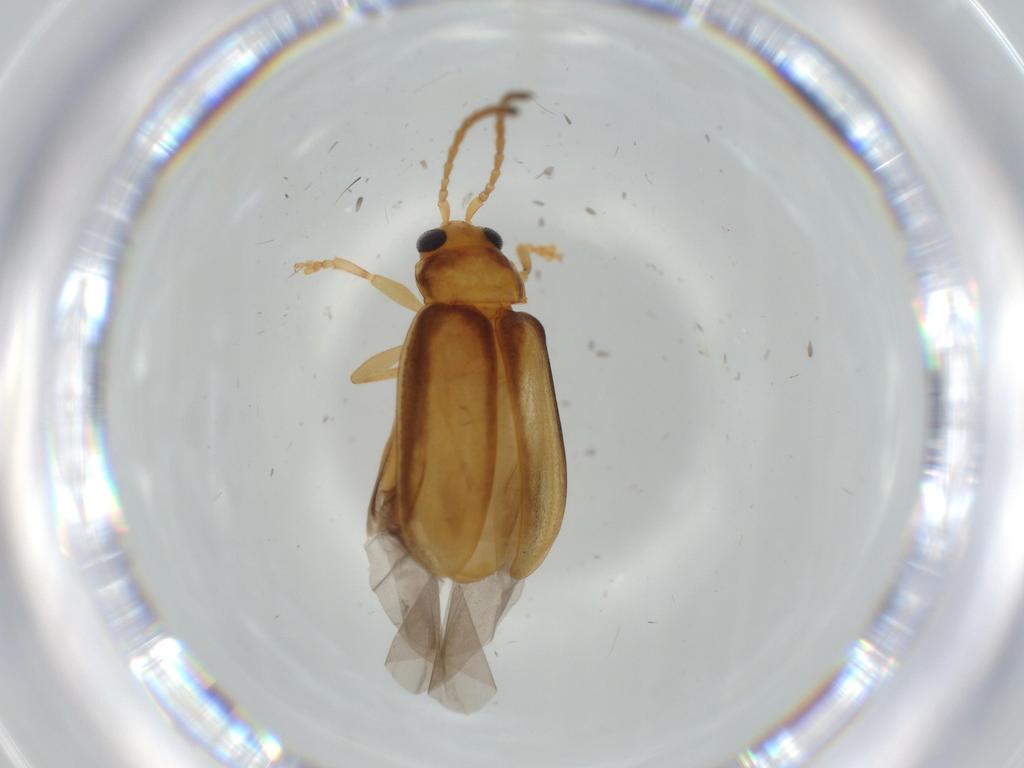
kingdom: Animalia
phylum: Arthropoda
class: Insecta
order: Coleoptera
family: Chrysomelidae
